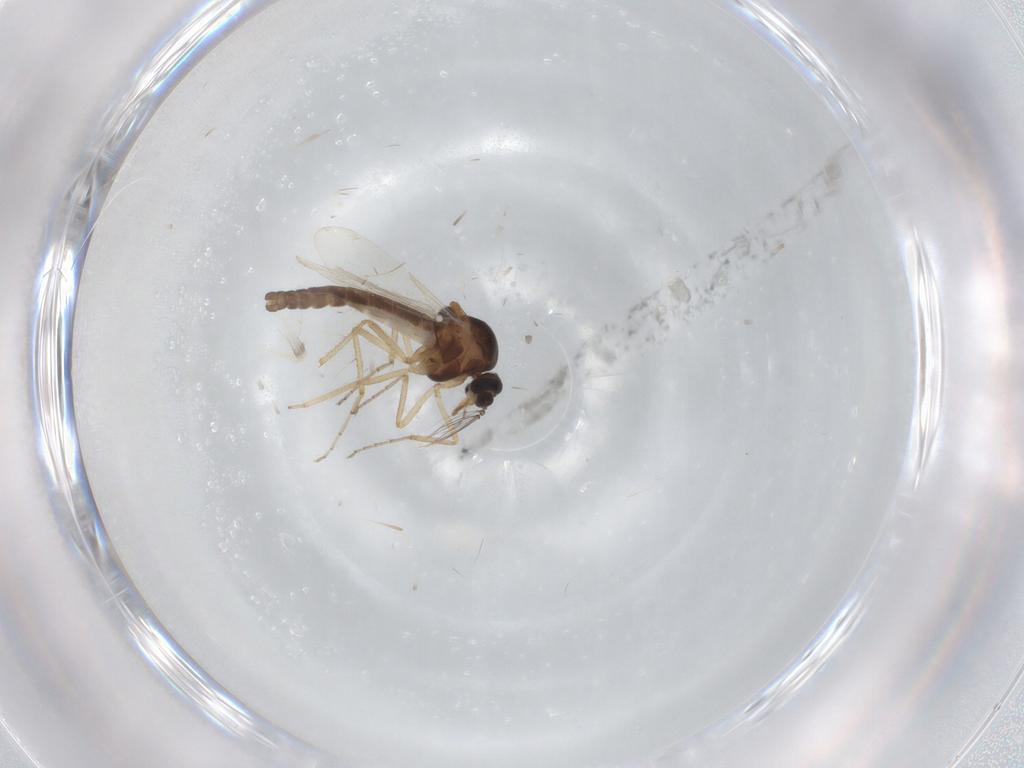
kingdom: Animalia
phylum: Arthropoda
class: Insecta
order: Diptera
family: Ceratopogonidae
